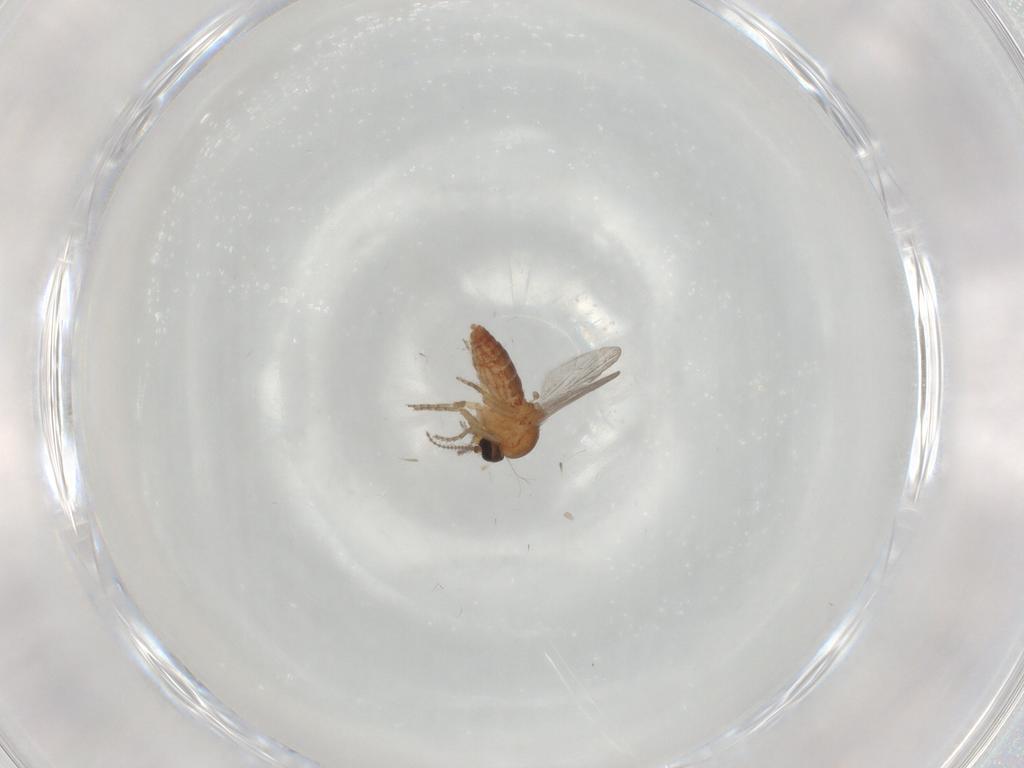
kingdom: Animalia
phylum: Arthropoda
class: Insecta
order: Diptera
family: Ceratopogonidae
